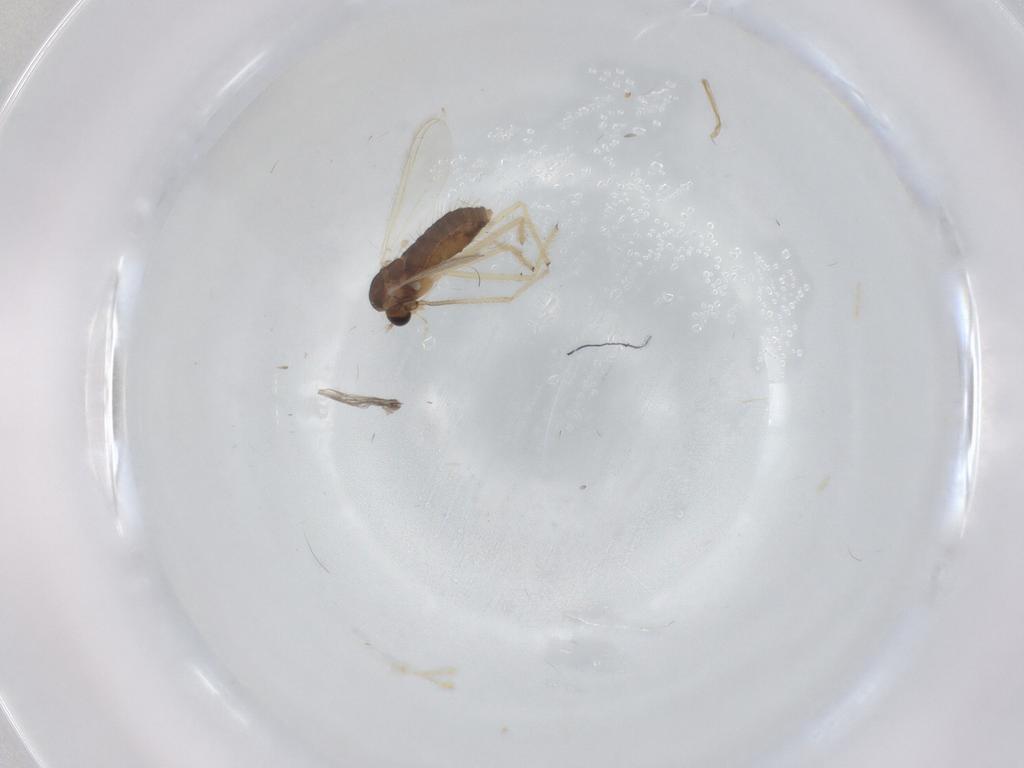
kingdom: Animalia
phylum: Arthropoda
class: Insecta
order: Diptera
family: Chironomidae
